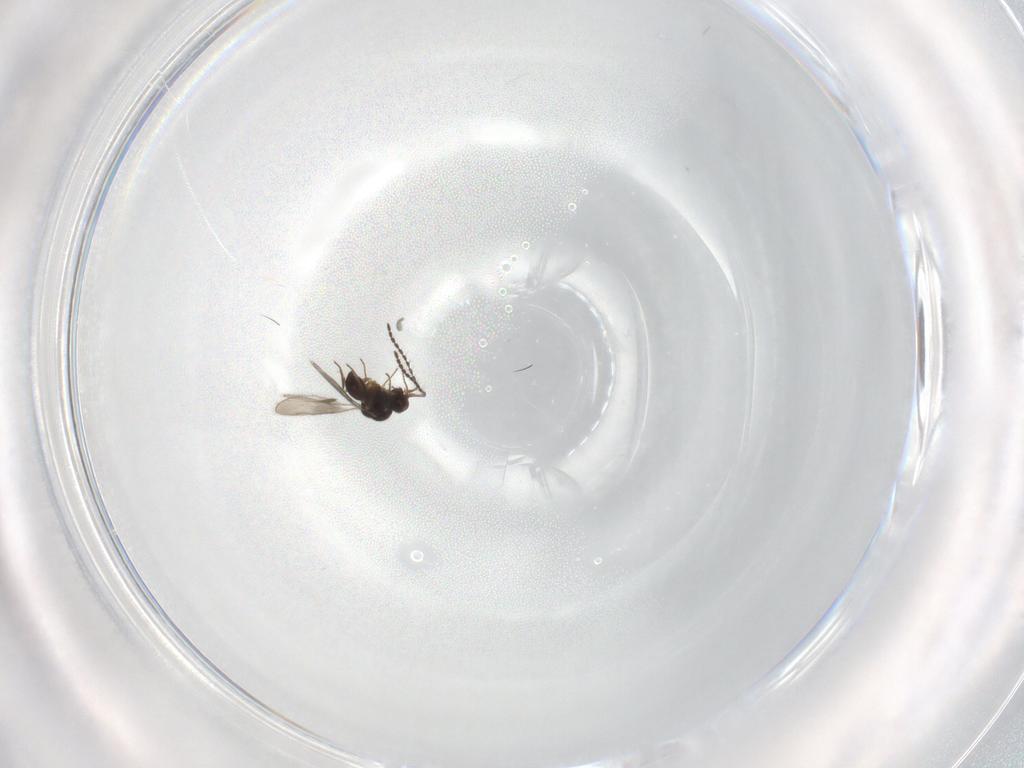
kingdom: Animalia
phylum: Arthropoda
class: Insecta
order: Hymenoptera
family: Ceraphronidae
